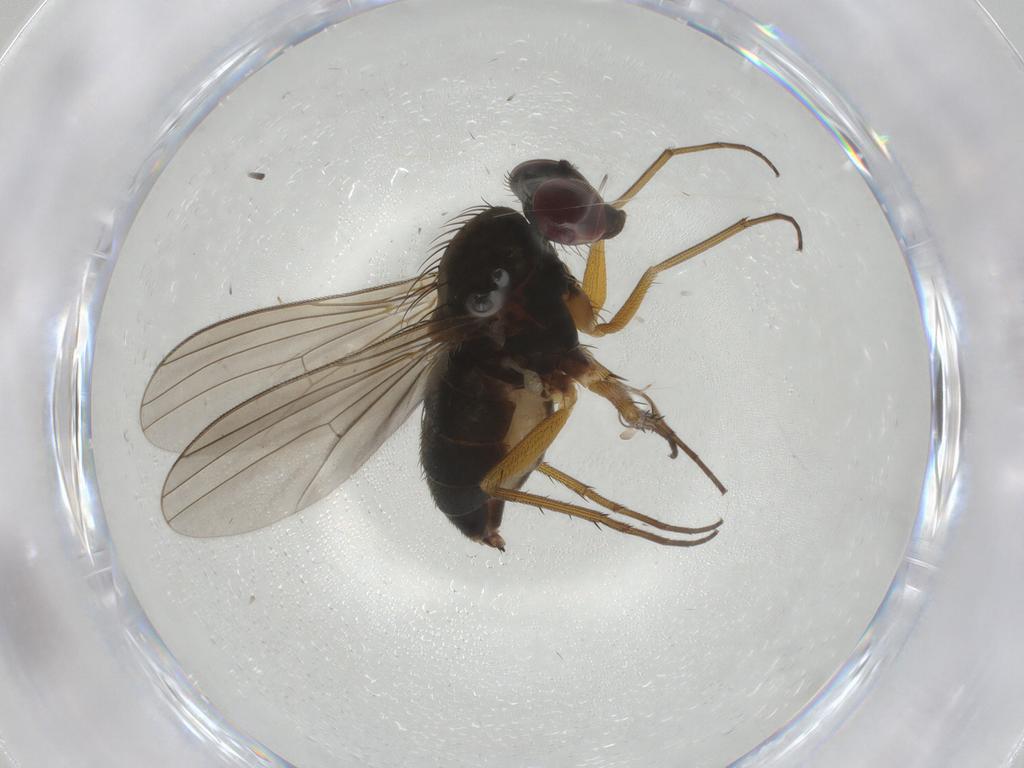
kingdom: Animalia
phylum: Arthropoda
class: Insecta
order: Diptera
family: Dolichopodidae
